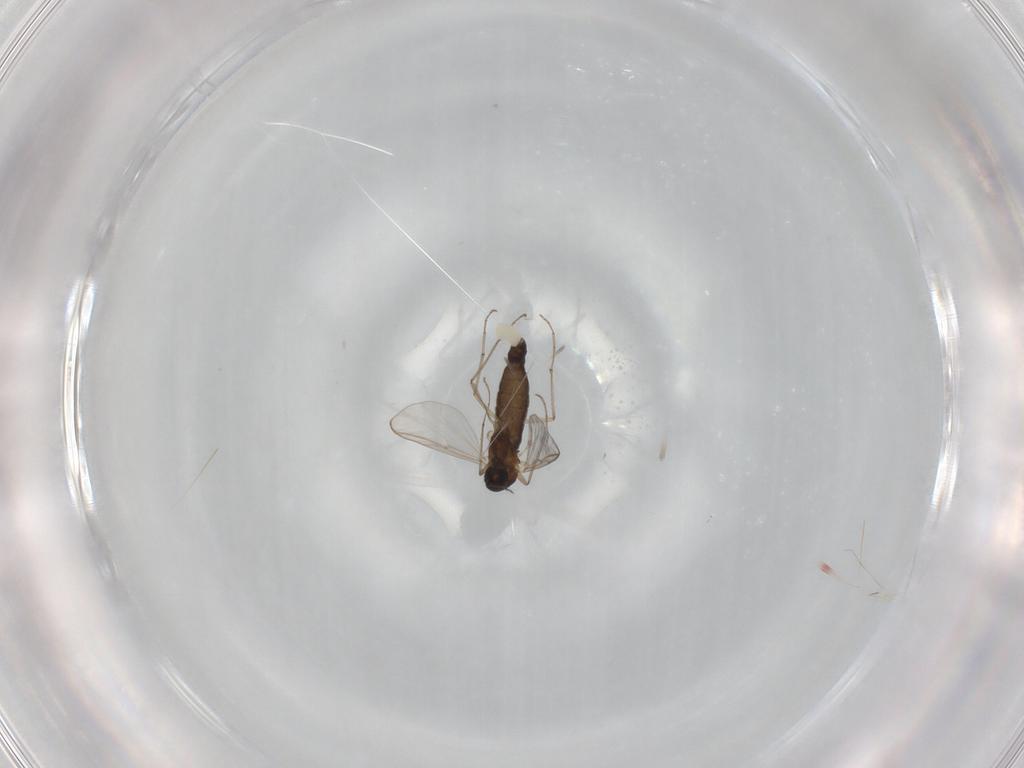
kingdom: Animalia
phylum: Arthropoda
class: Insecta
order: Diptera
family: Chironomidae
